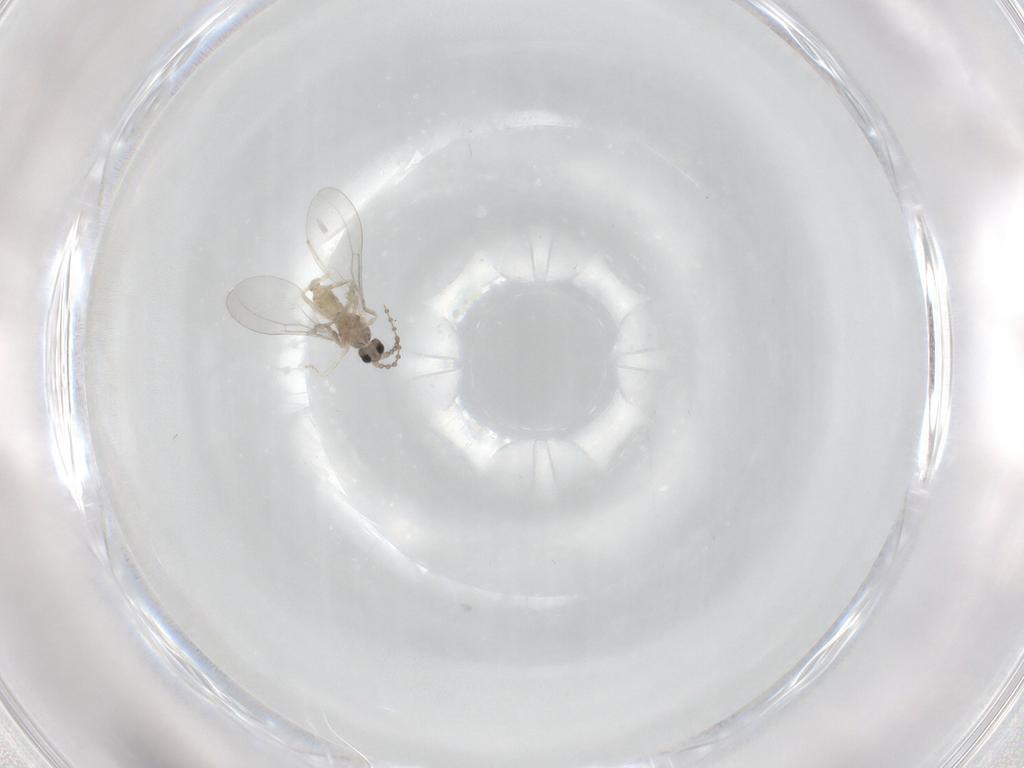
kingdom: Animalia
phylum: Arthropoda
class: Insecta
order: Diptera
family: Cecidomyiidae
